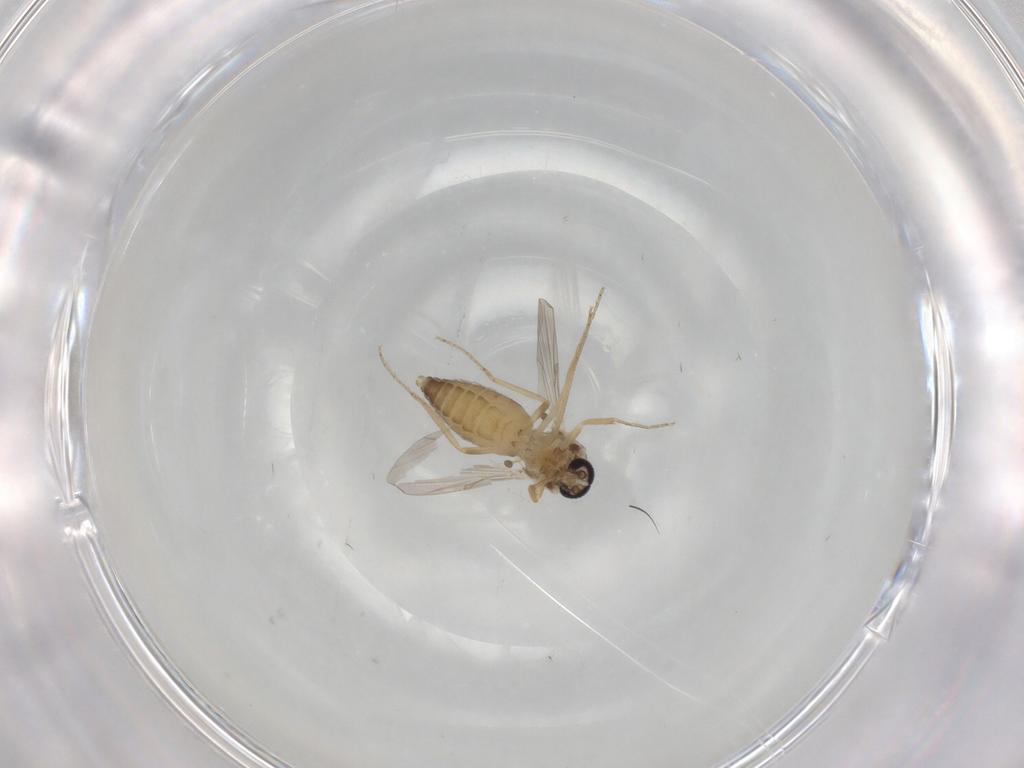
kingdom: Animalia
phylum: Arthropoda
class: Insecta
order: Diptera
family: Ceratopogonidae
